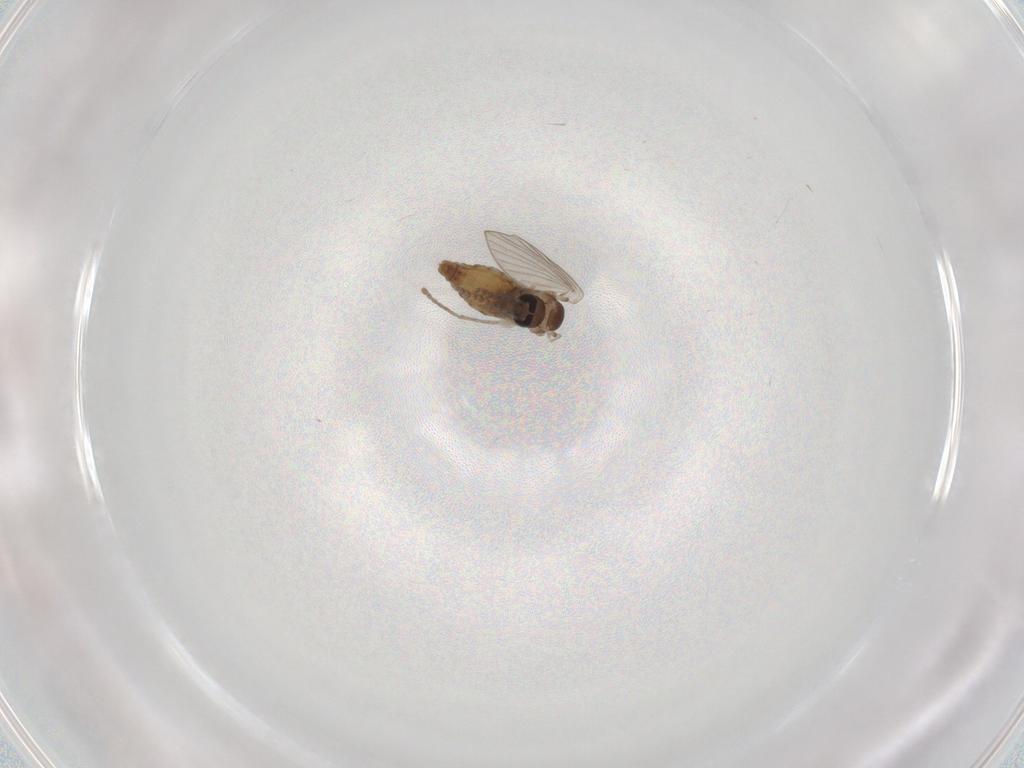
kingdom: Animalia
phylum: Arthropoda
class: Insecta
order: Diptera
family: Psychodidae
